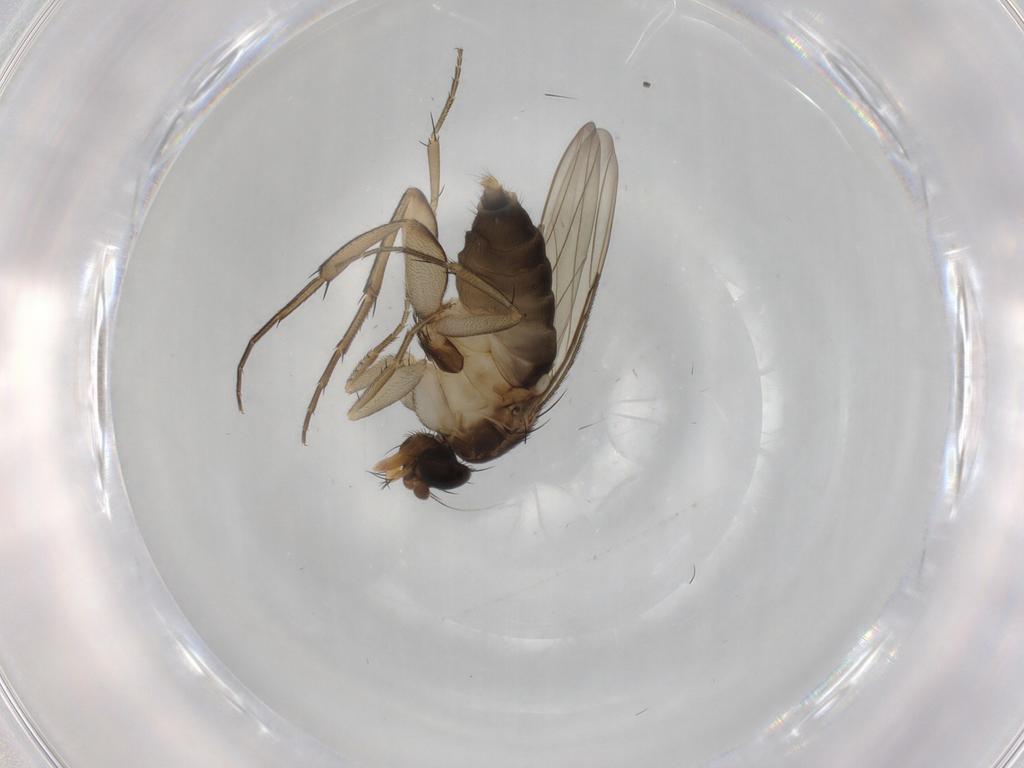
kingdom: Animalia
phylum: Arthropoda
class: Insecta
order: Diptera
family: Phoridae
